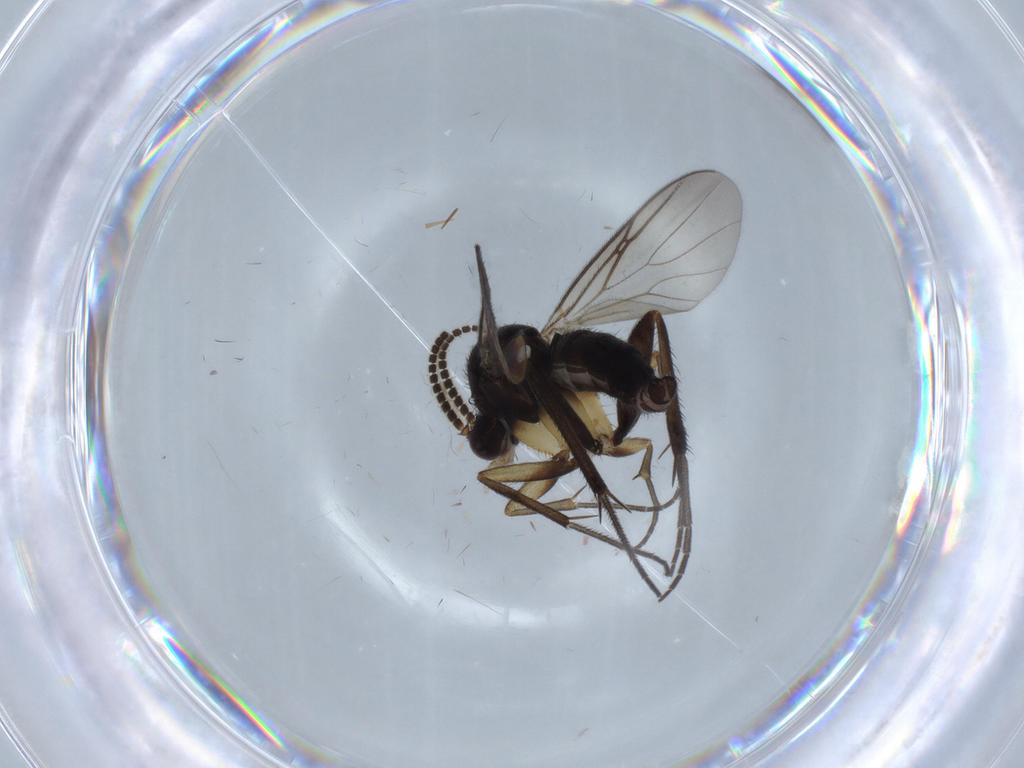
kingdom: Animalia
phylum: Arthropoda
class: Insecta
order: Diptera
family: Mycetophilidae
